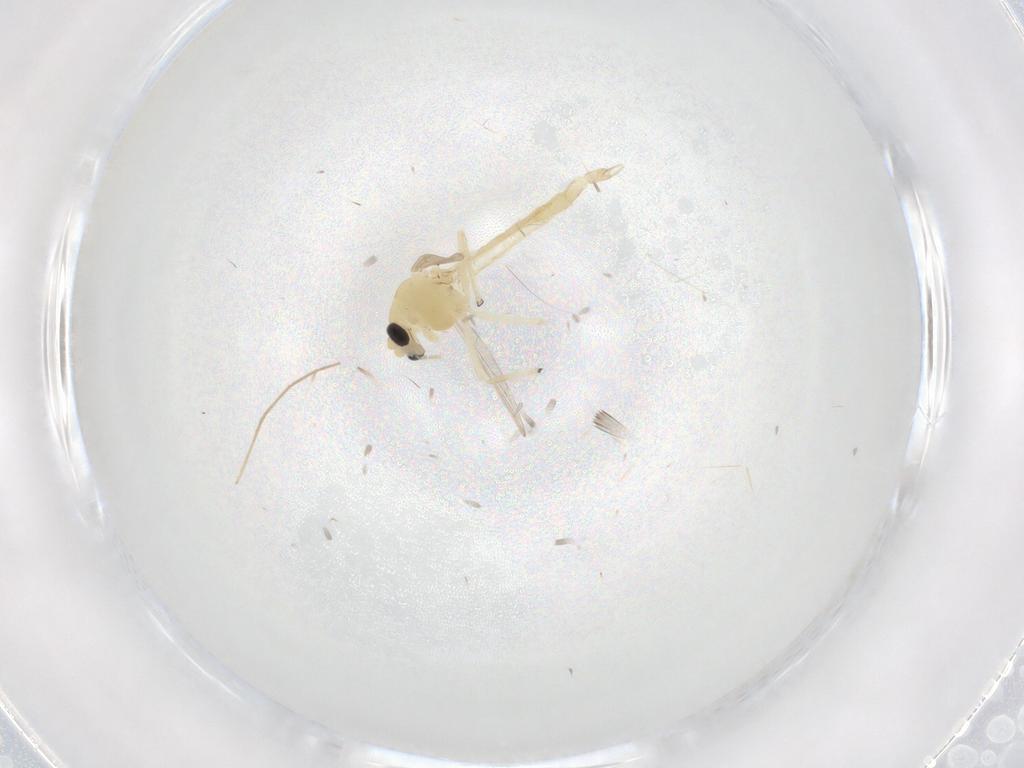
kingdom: Animalia
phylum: Arthropoda
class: Insecta
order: Diptera
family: Chironomidae
